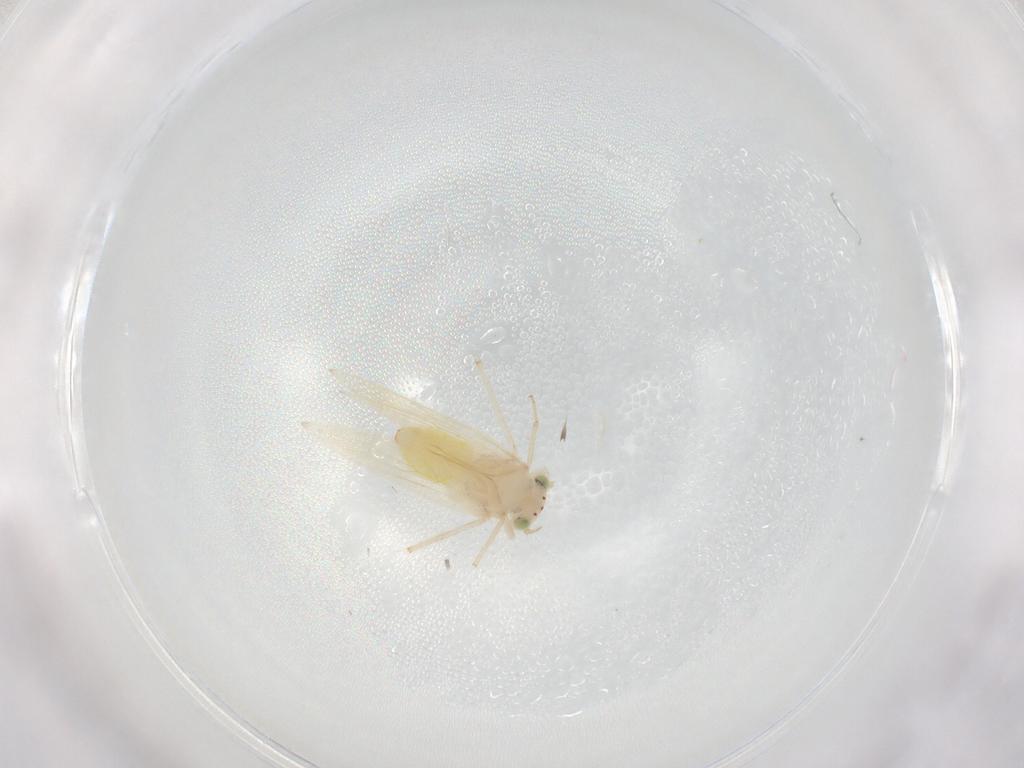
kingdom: Animalia
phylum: Arthropoda
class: Insecta
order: Psocodea
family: Lepidopsocidae
